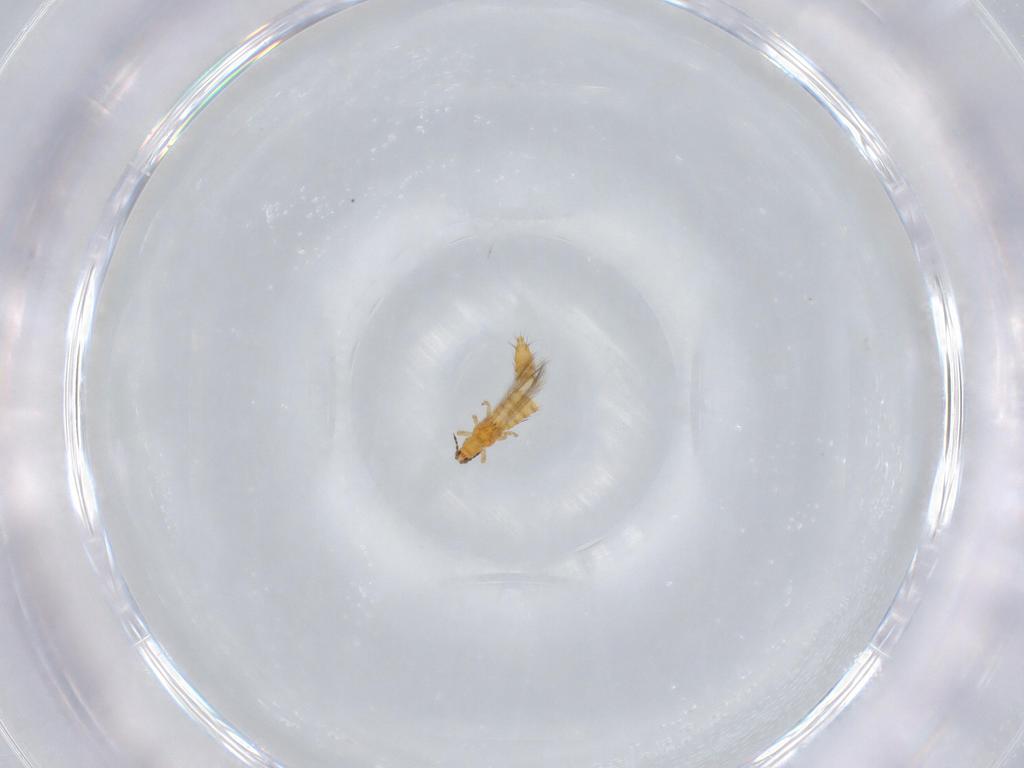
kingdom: Animalia
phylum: Arthropoda
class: Insecta
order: Thysanoptera
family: Thripidae
